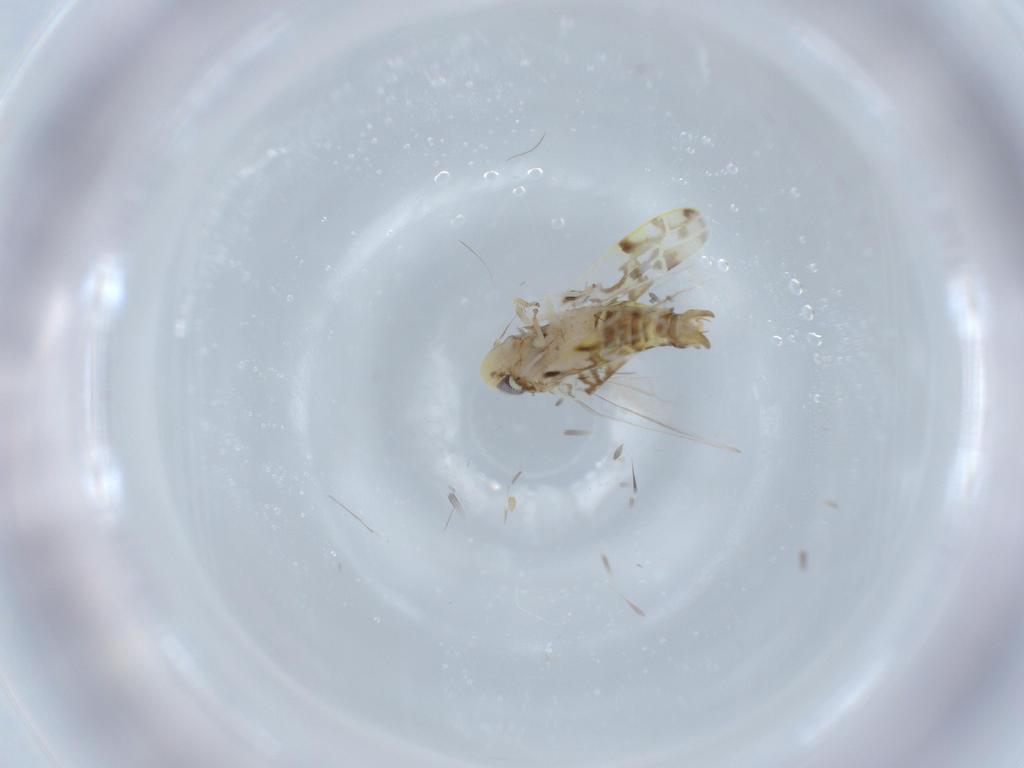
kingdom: Animalia
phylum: Arthropoda
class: Insecta
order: Hemiptera
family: Cicadellidae
